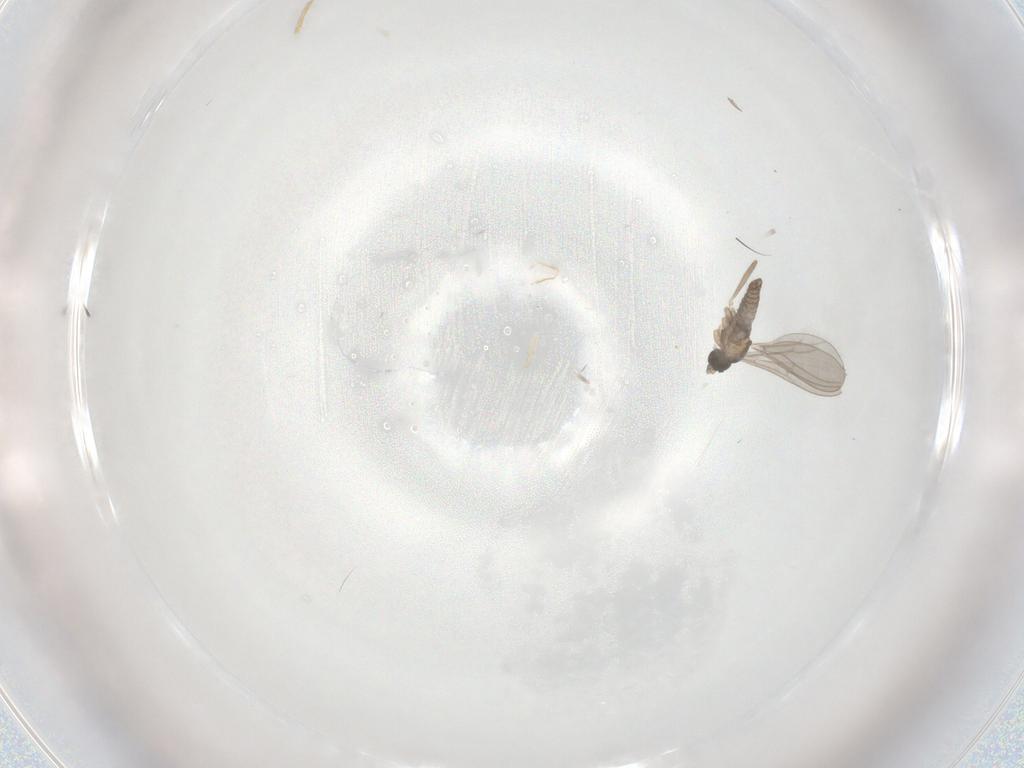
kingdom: Animalia
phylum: Arthropoda
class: Insecta
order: Diptera
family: Cecidomyiidae
